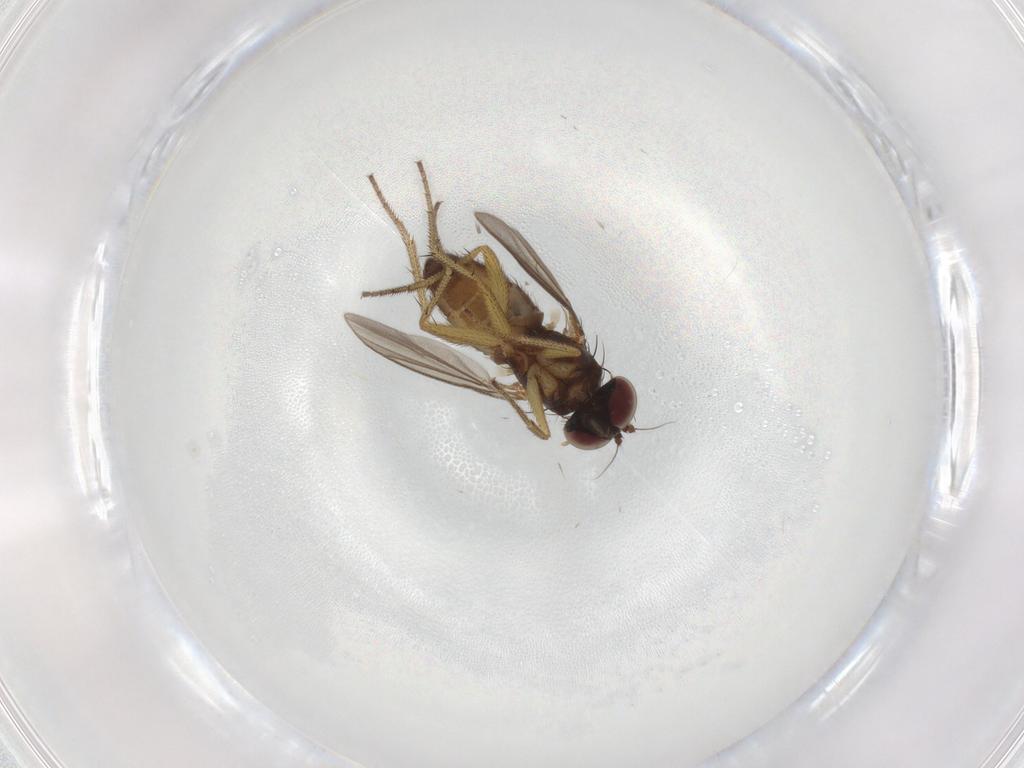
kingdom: Animalia
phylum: Arthropoda
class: Insecta
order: Diptera
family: Dolichopodidae
